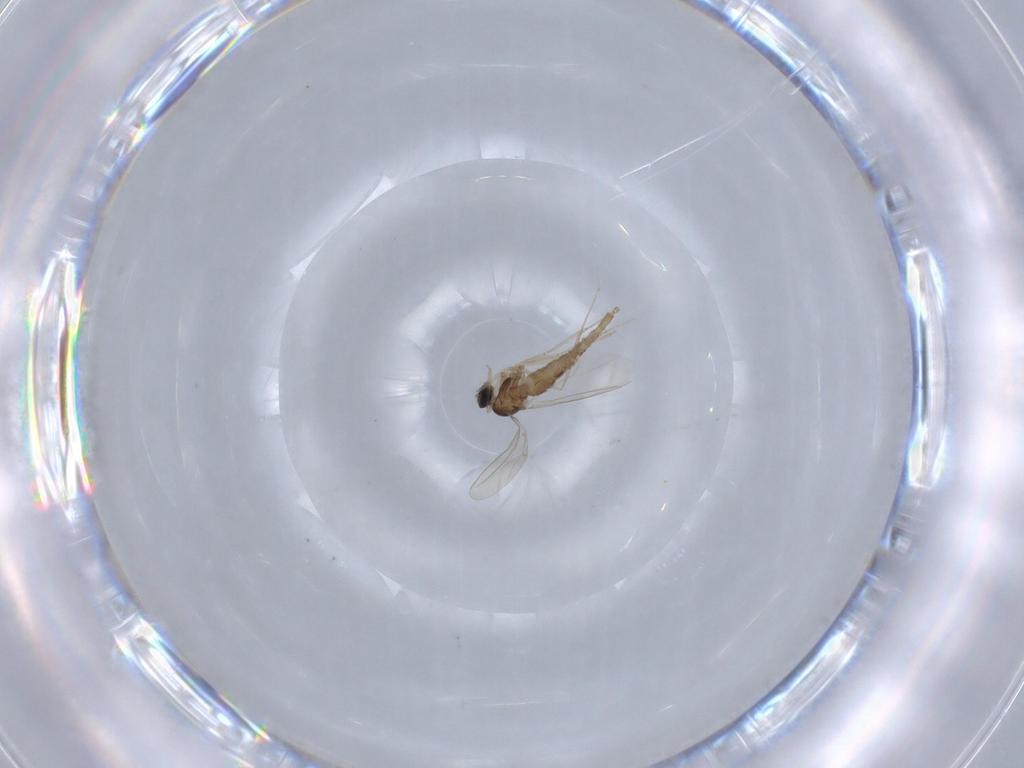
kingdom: Animalia
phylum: Arthropoda
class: Insecta
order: Diptera
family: Cecidomyiidae
